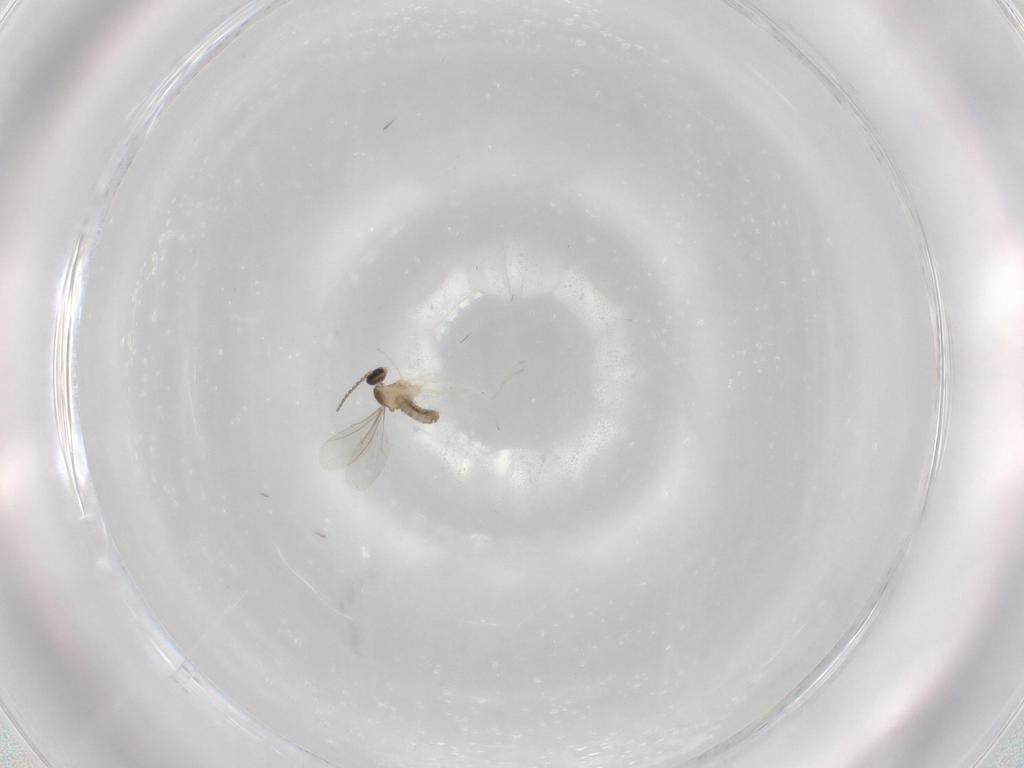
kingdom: Animalia
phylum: Arthropoda
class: Insecta
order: Diptera
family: Cecidomyiidae
